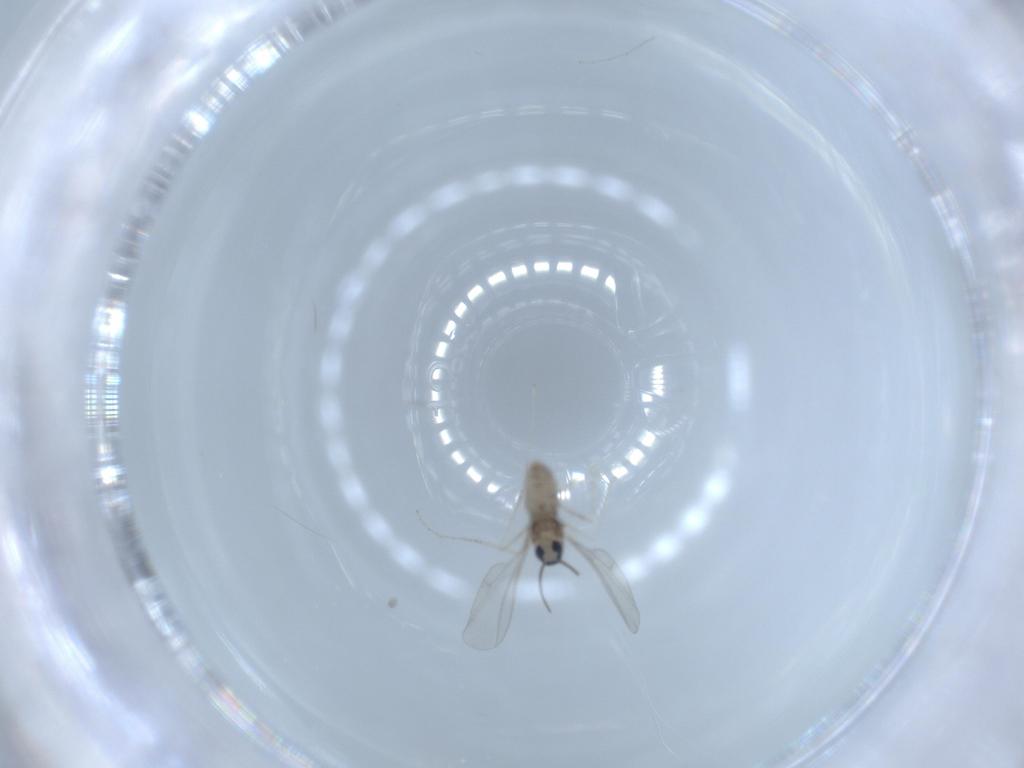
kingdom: Animalia
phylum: Arthropoda
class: Insecta
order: Diptera
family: Cecidomyiidae
